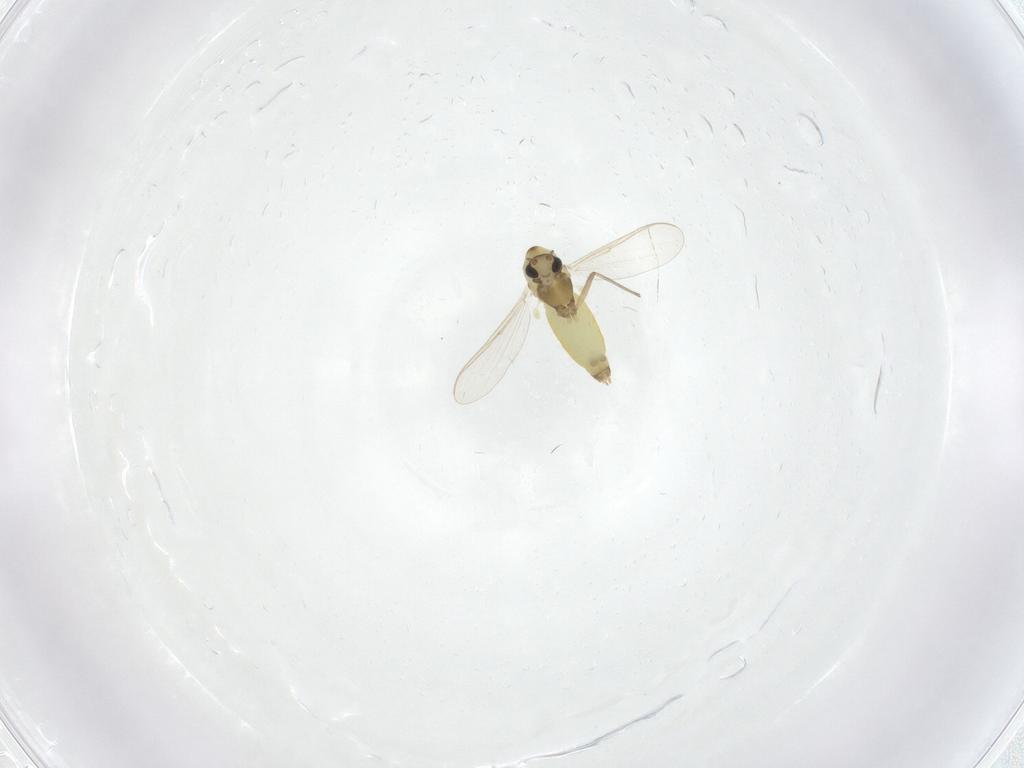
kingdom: Animalia
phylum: Arthropoda
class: Insecta
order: Diptera
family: Chironomidae
